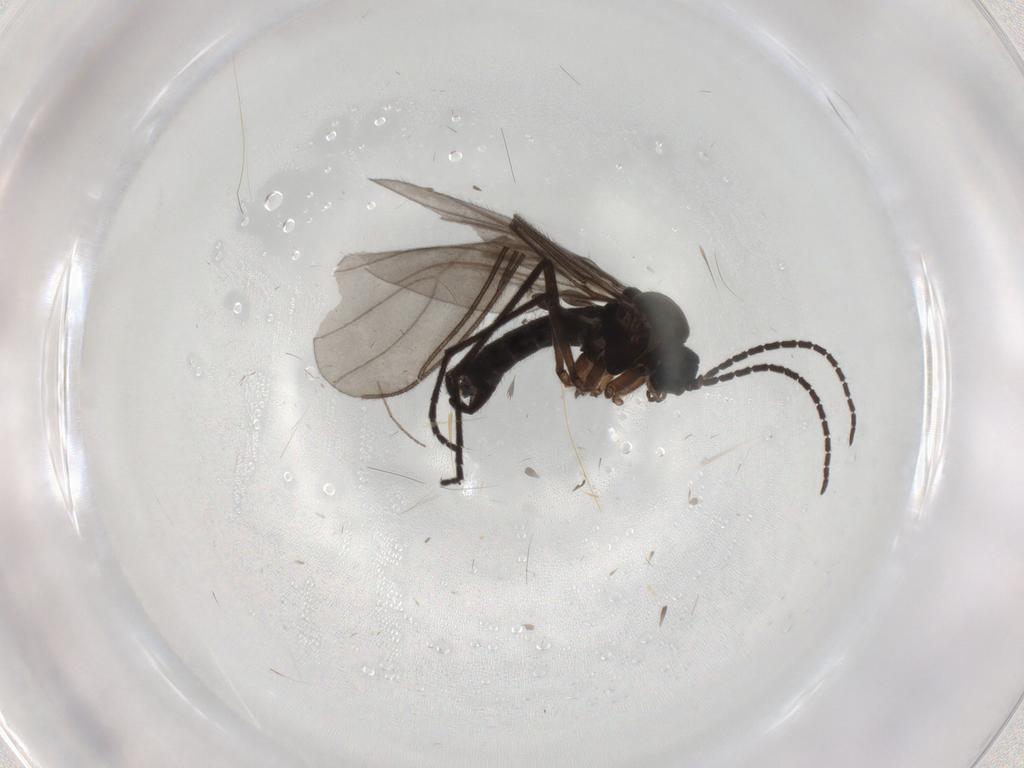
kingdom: Animalia
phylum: Arthropoda
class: Insecta
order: Diptera
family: Sciaridae
